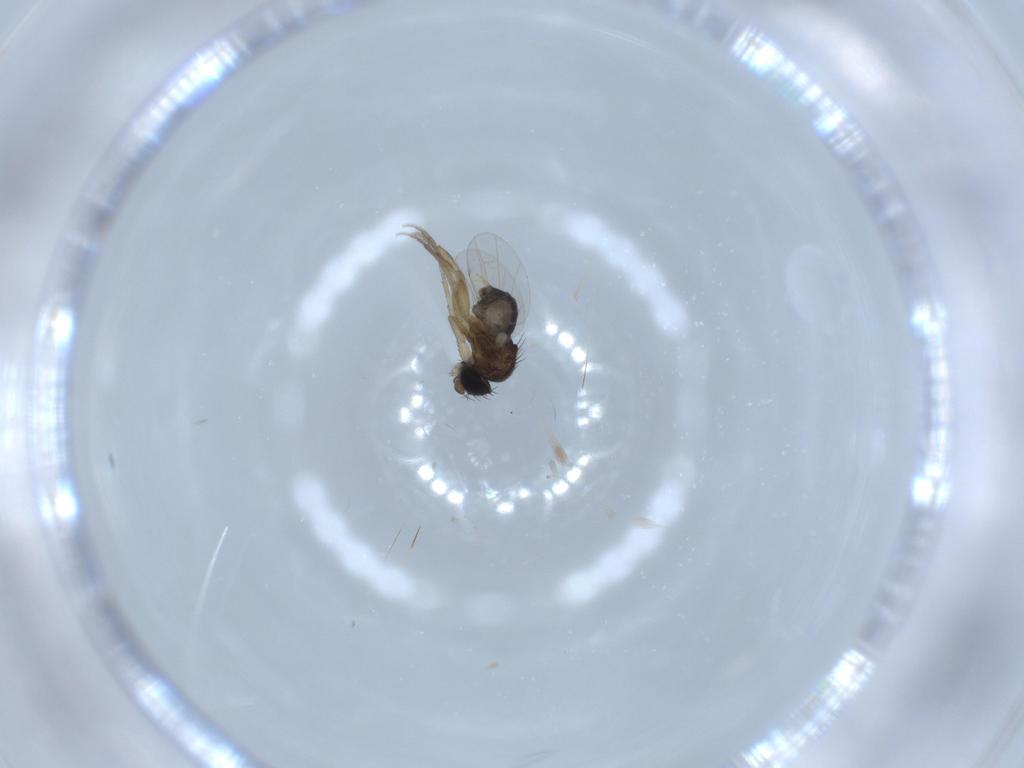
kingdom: Animalia
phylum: Arthropoda
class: Insecta
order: Diptera
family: Phoridae
